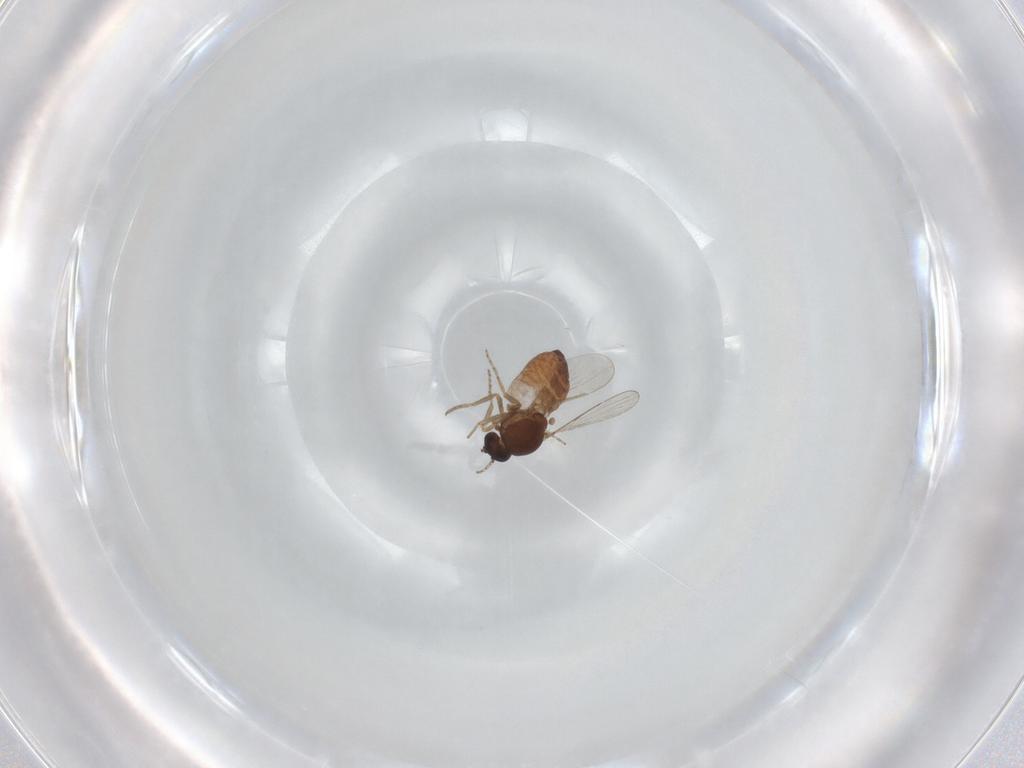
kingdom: Animalia
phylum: Arthropoda
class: Insecta
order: Diptera
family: Ceratopogonidae
